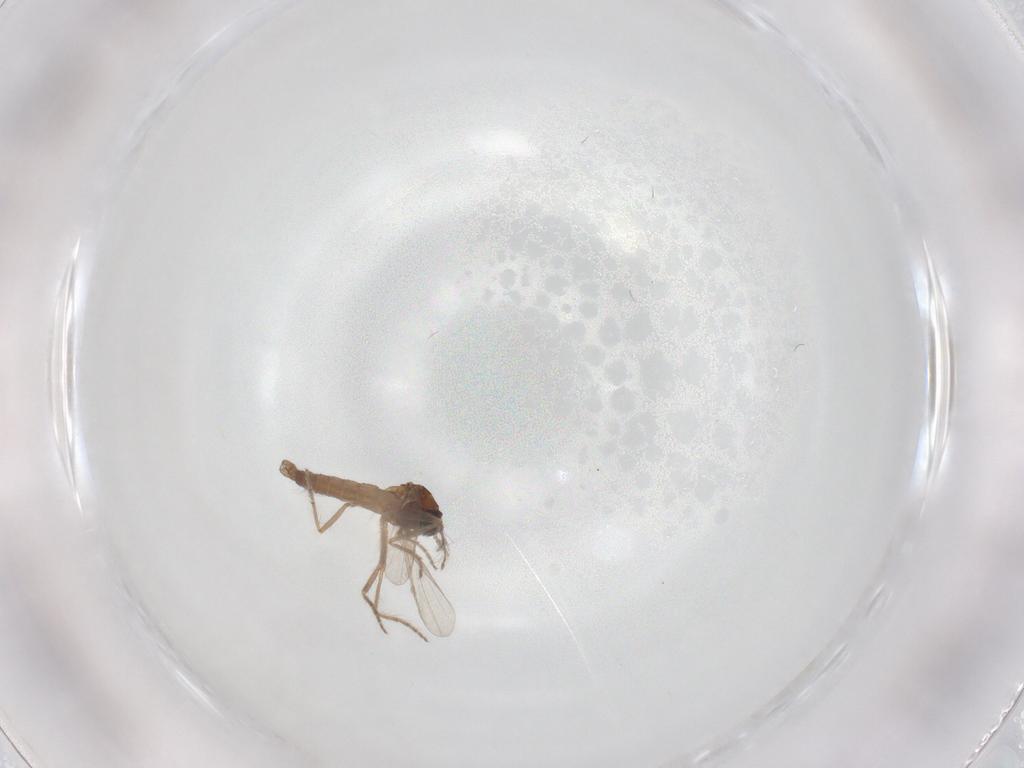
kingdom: Animalia
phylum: Arthropoda
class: Insecta
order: Diptera
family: Ceratopogonidae
